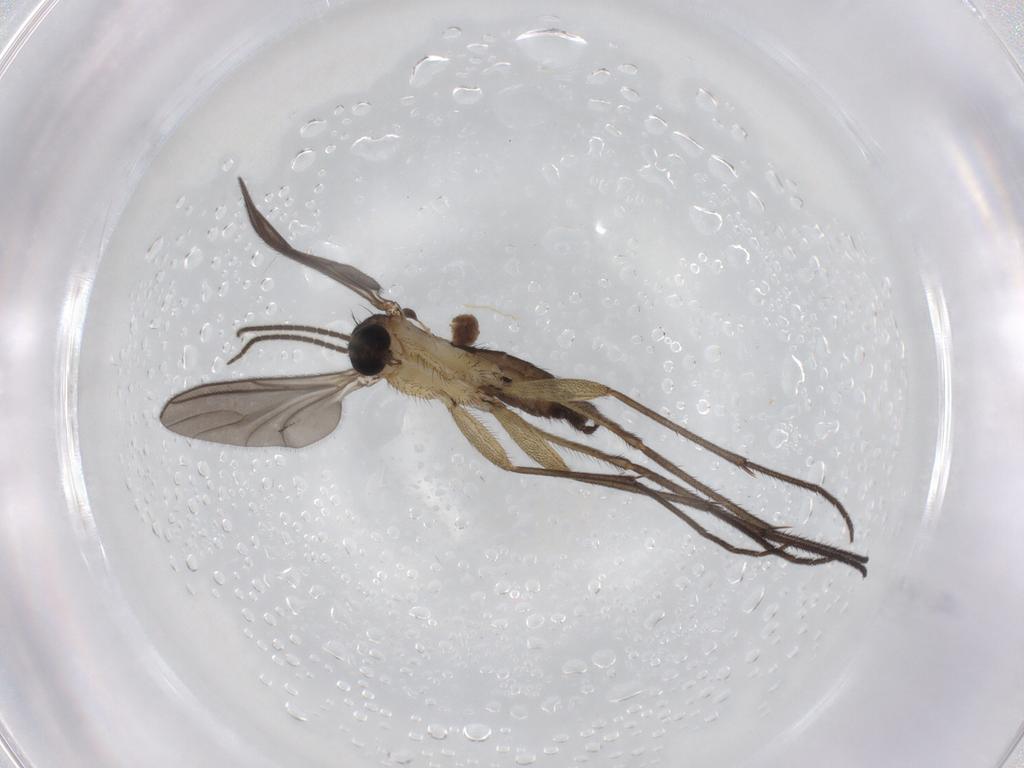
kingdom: Animalia
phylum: Arthropoda
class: Insecta
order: Diptera
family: Sciaridae
